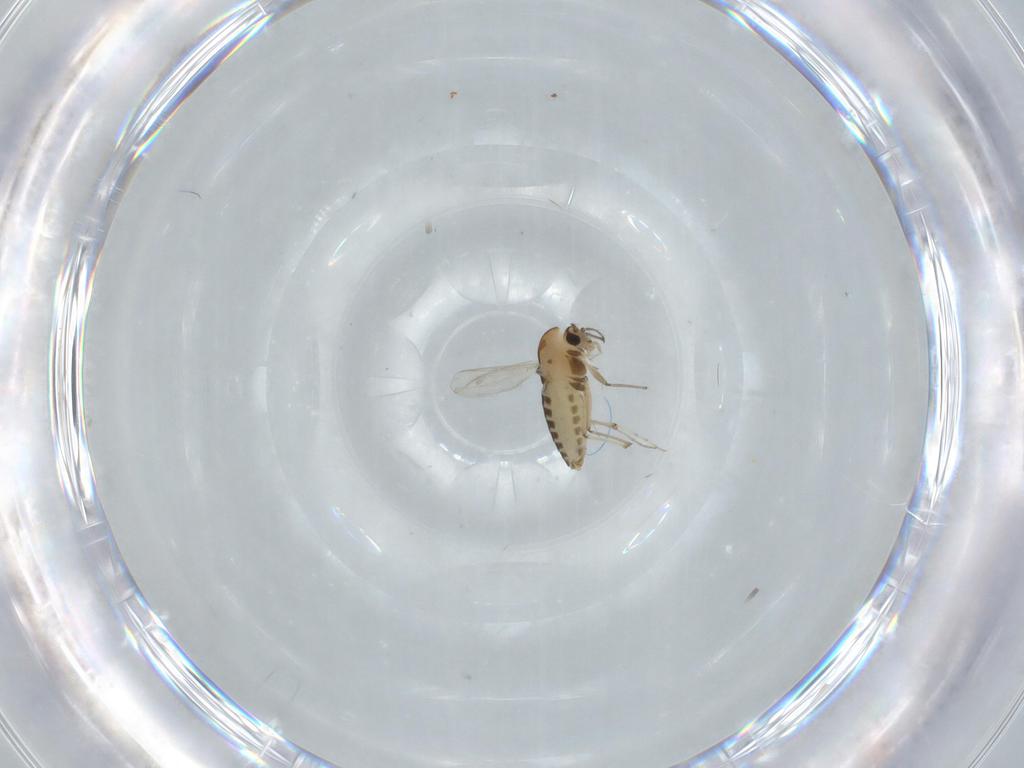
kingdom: Animalia
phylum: Arthropoda
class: Insecta
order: Diptera
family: Chironomidae
